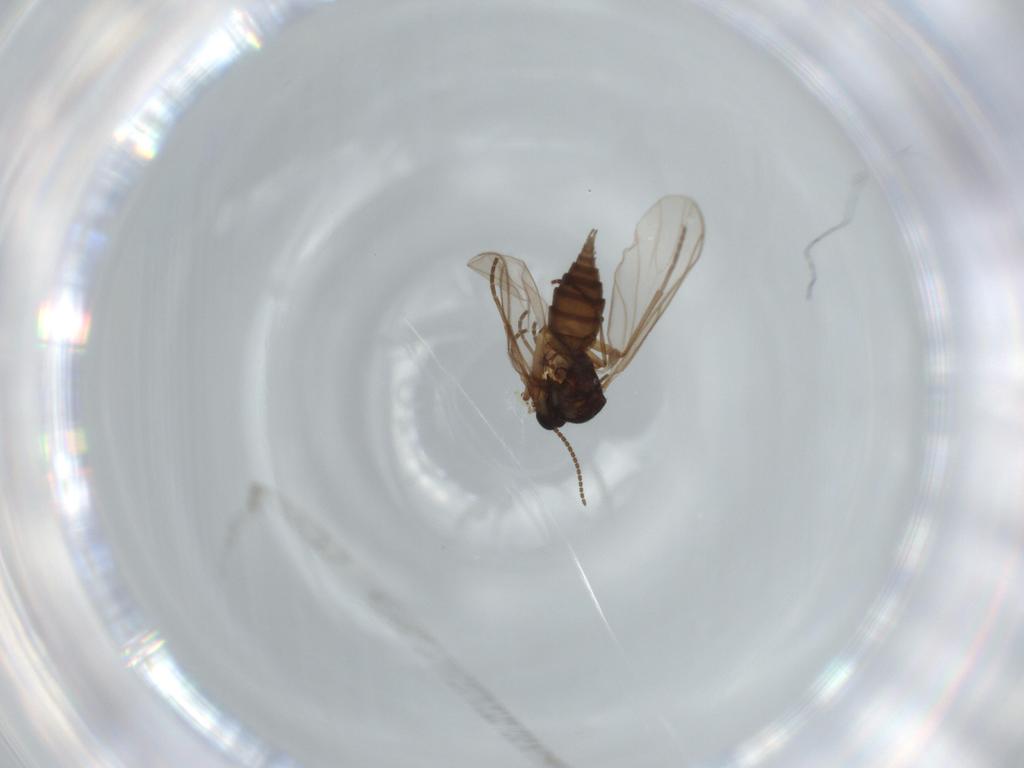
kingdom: Animalia
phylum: Arthropoda
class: Insecta
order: Diptera
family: Sciaridae
